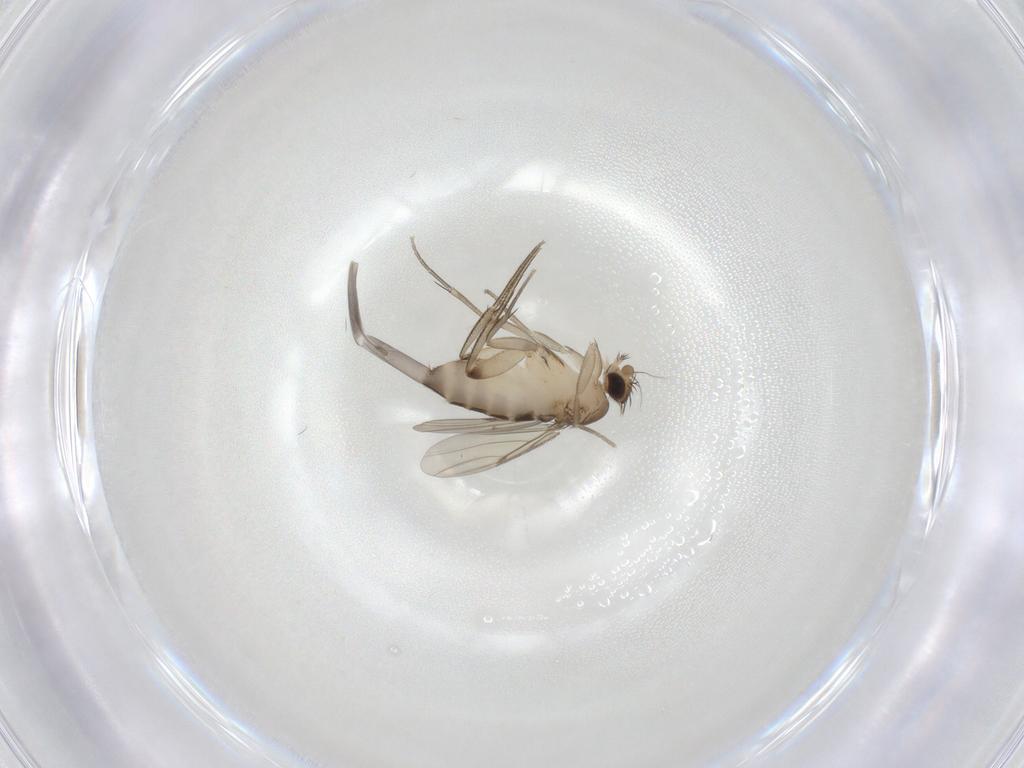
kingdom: Animalia
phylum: Arthropoda
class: Insecta
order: Diptera
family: Cecidomyiidae
